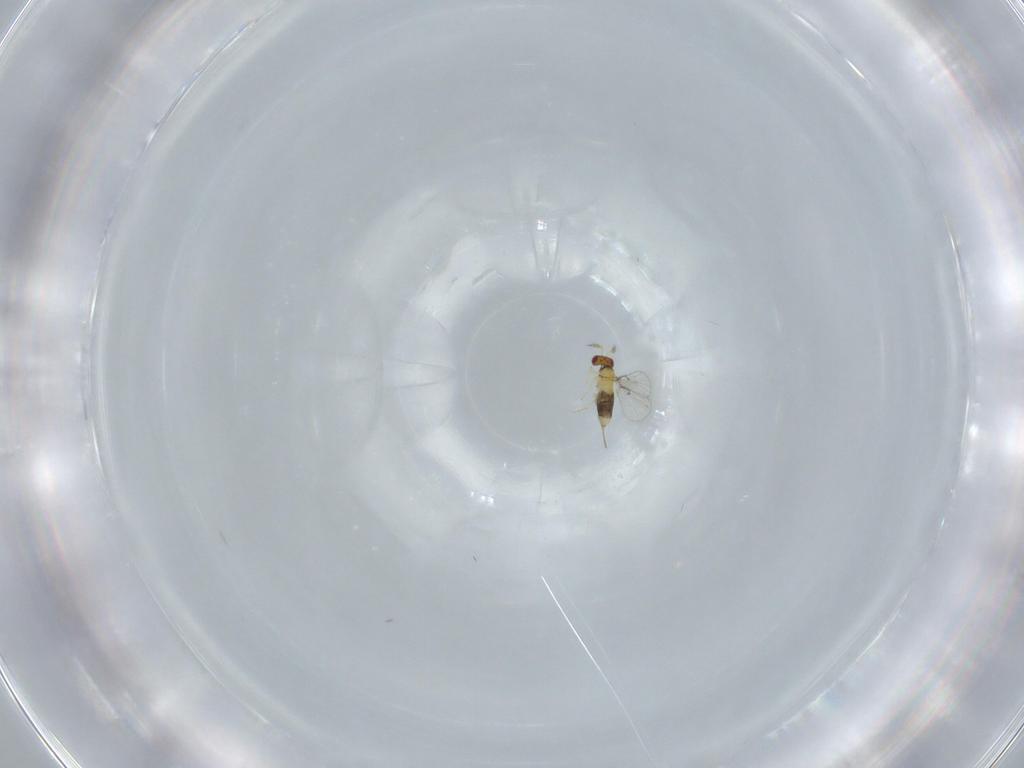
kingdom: Animalia
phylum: Arthropoda
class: Insecta
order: Hymenoptera
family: Trichogrammatidae
